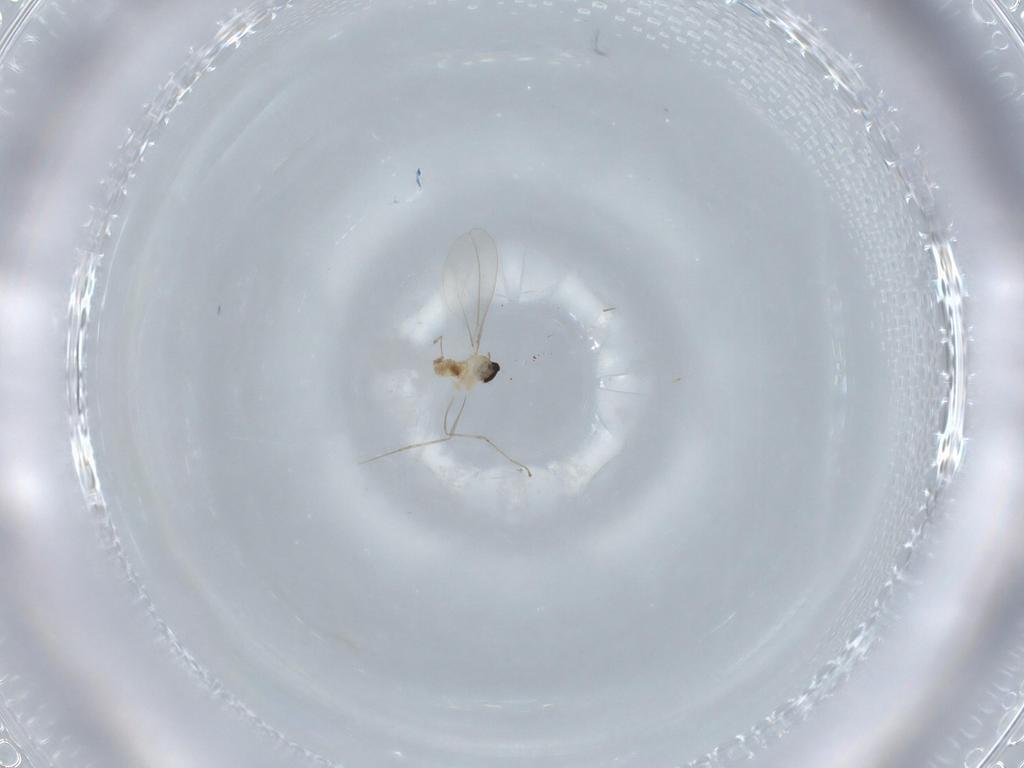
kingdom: Animalia
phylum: Arthropoda
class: Insecta
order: Diptera
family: Cecidomyiidae
